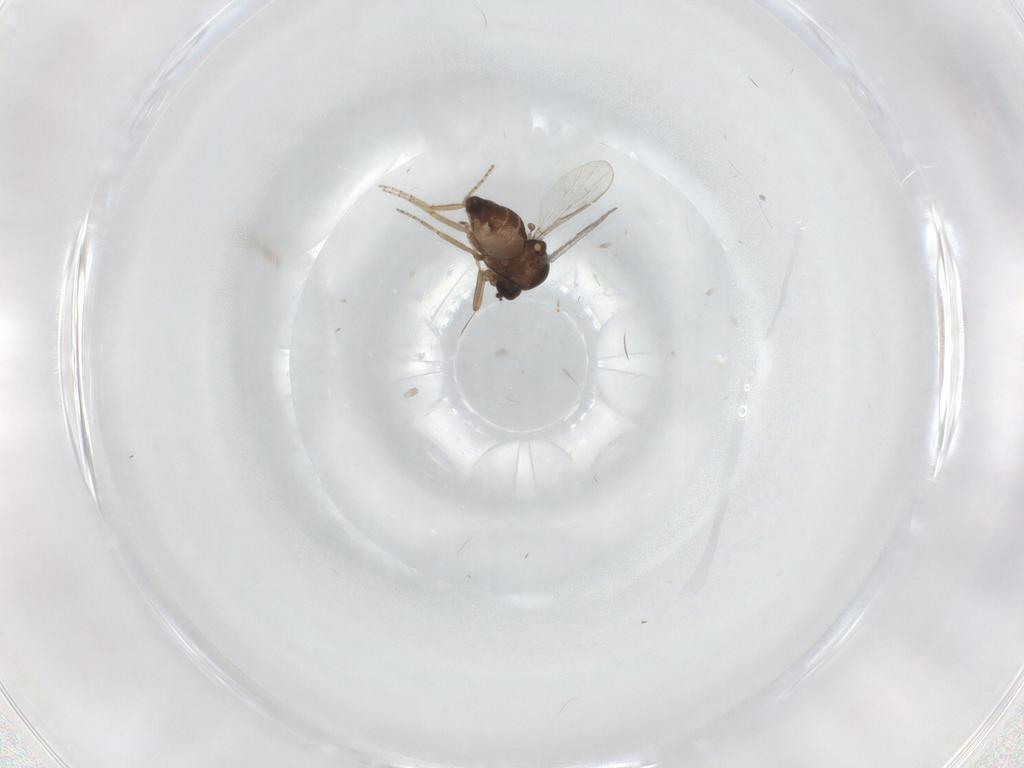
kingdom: Animalia
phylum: Arthropoda
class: Insecta
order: Diptera
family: Ceratopogonidae
